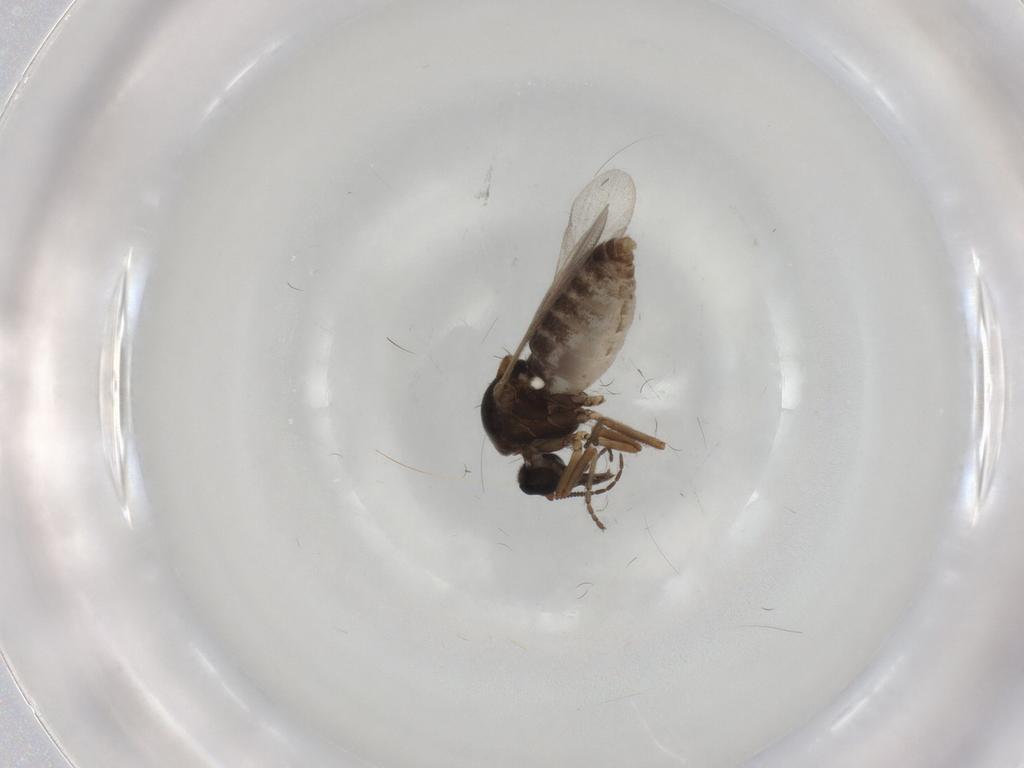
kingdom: Animalia
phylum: Arthropoda
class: Insecta
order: Diptera
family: Ceratopogonidae
